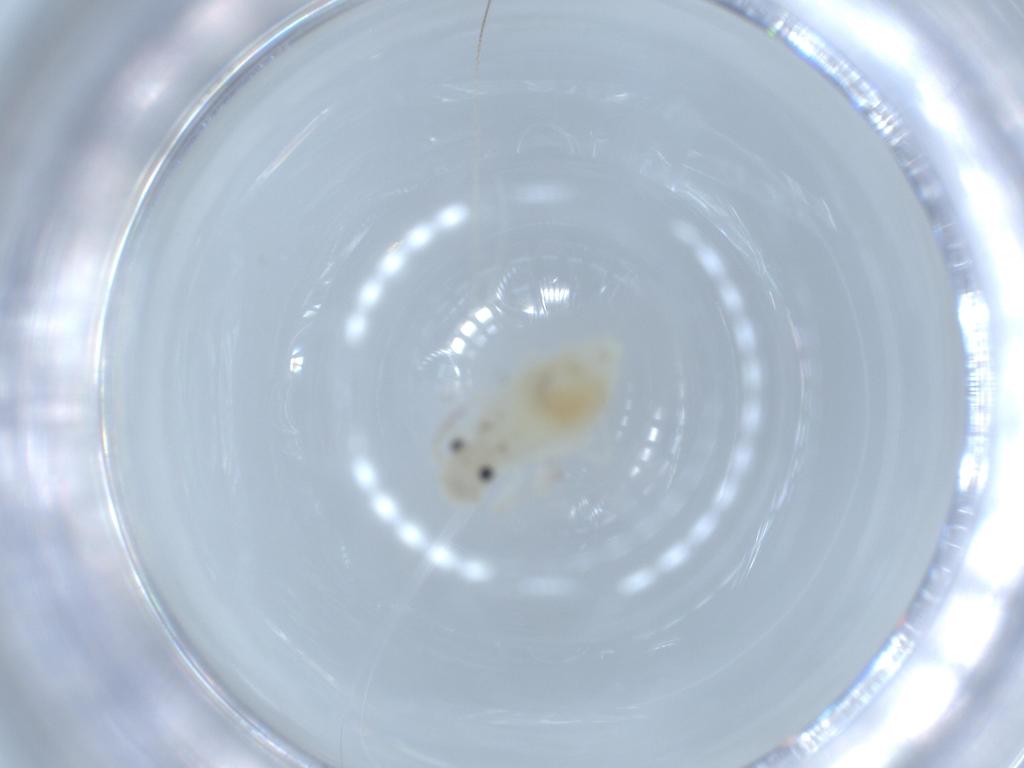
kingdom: Animalia
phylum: Arthropoda
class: Insecta
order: Psocodea
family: Caeciliusidae
